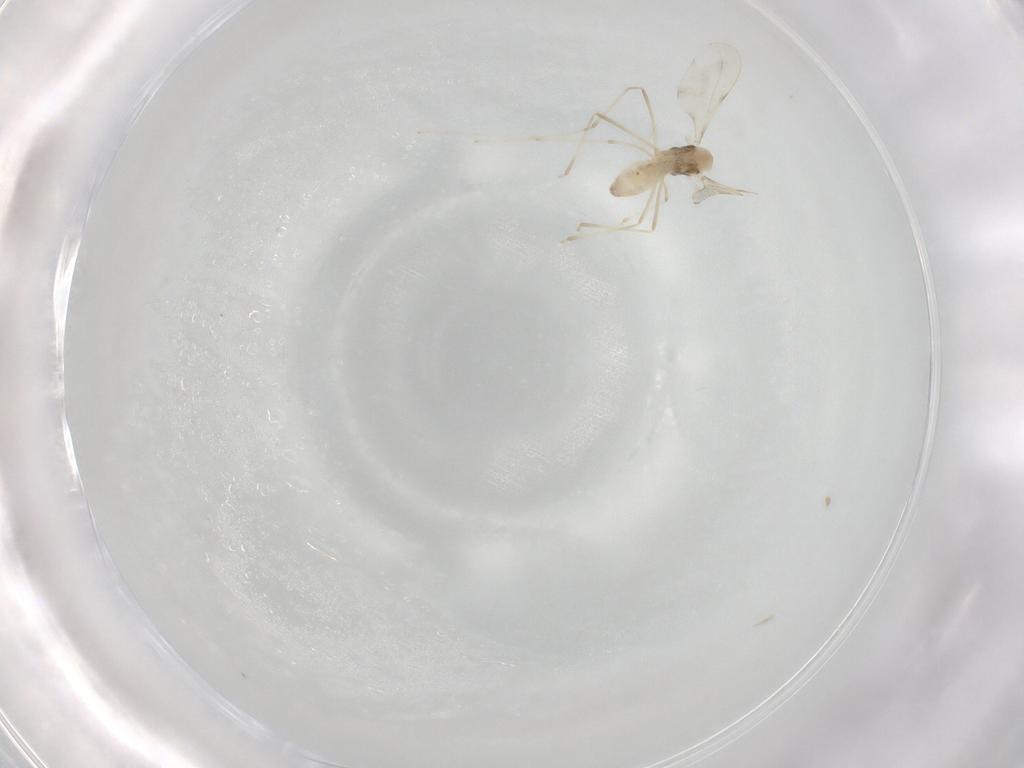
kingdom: Animalia
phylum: Arthropoda
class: Insecta
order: Diptera
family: Cecidomyiidae
